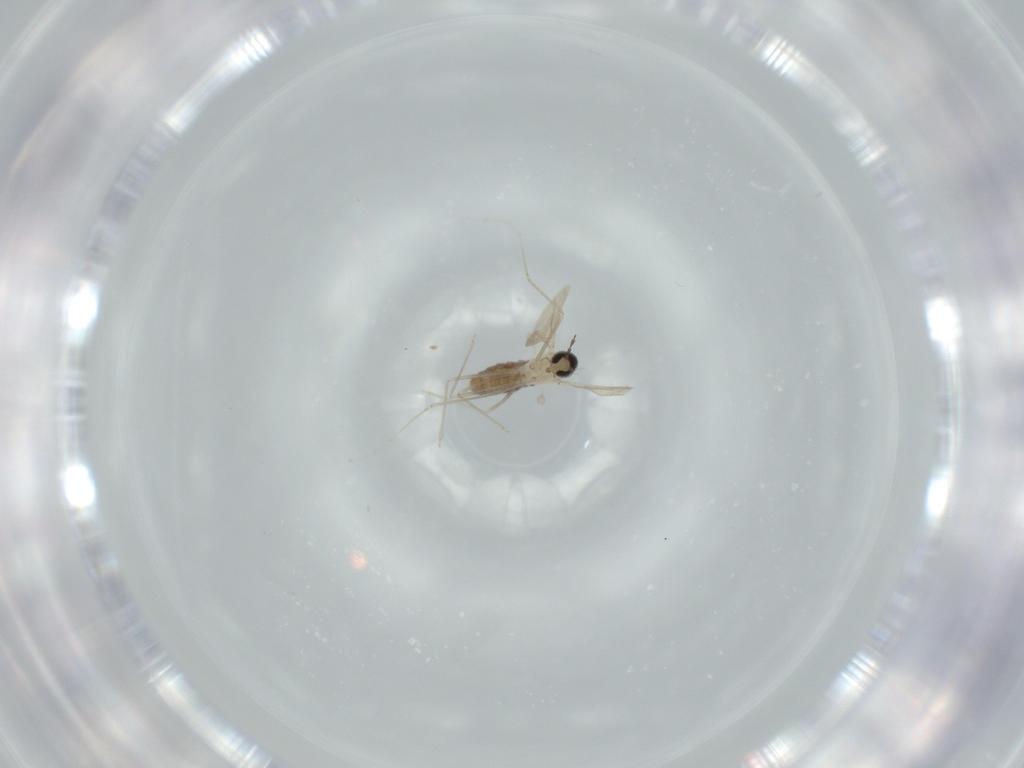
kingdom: Animalia
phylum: Arthropoda
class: Insecta
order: Diptera
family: Cecidomyiidae
